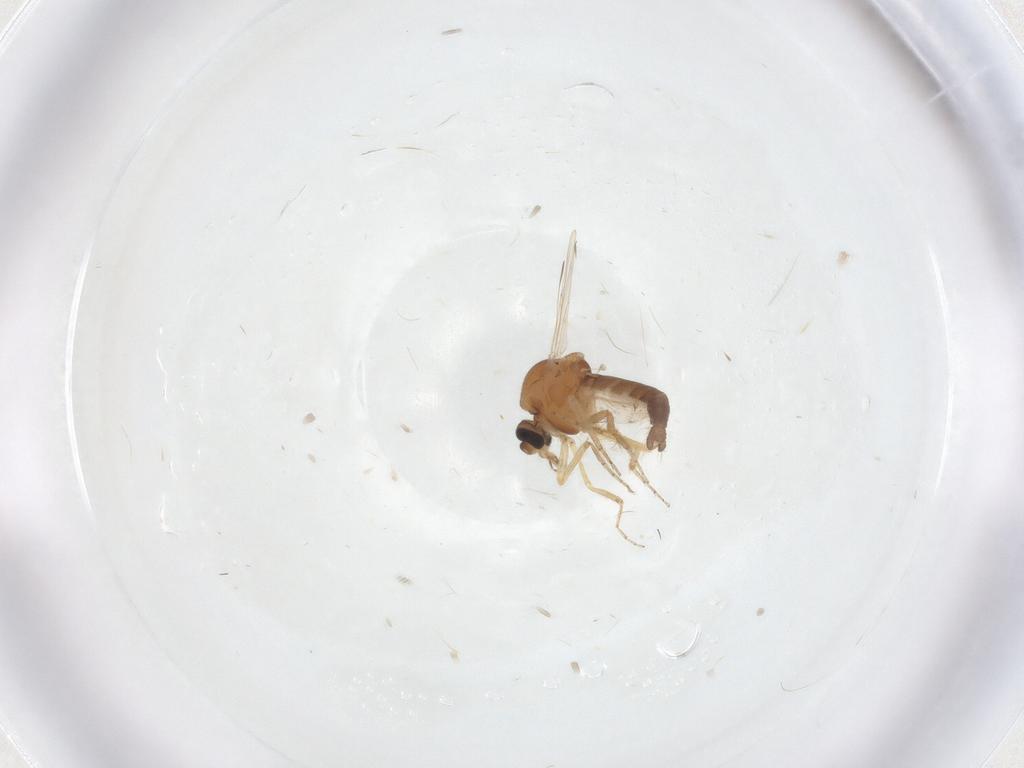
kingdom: Animalia
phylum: Arthropoda
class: Insecta
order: Diptera
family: Ceratopogonidae
